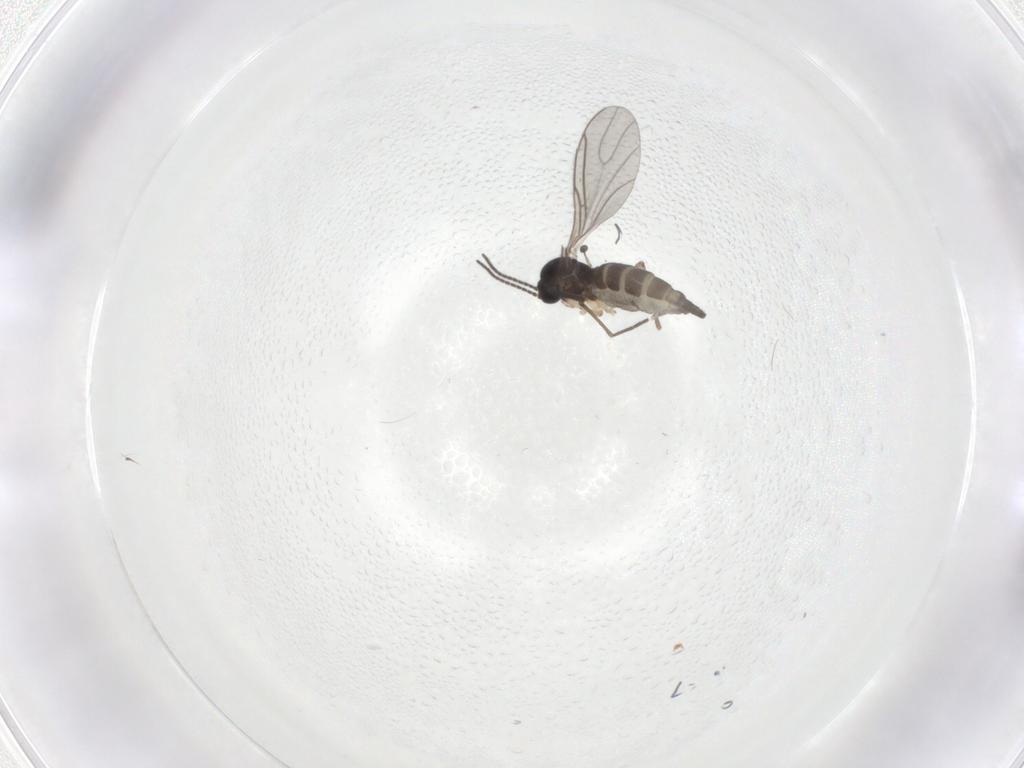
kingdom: Animalia
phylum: Arthropoda
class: Insecta
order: Diptera
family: Sciaridae
